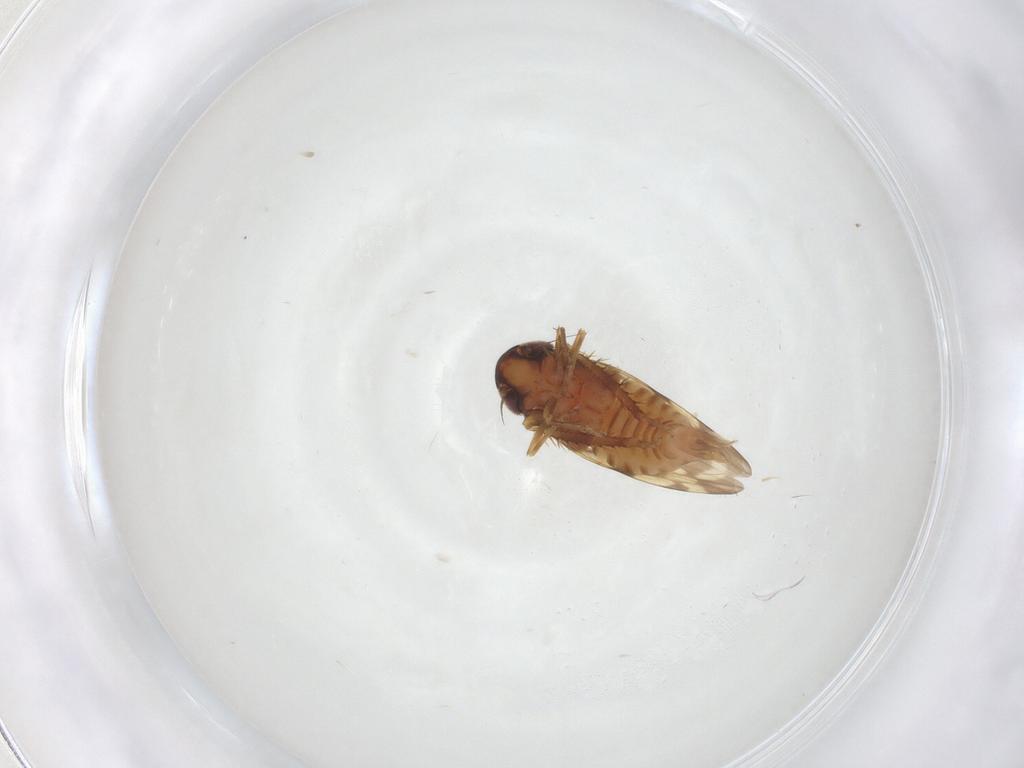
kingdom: Animalia
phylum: Arthropoda
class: Insecta
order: Hemiptera
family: Cicadellidae
